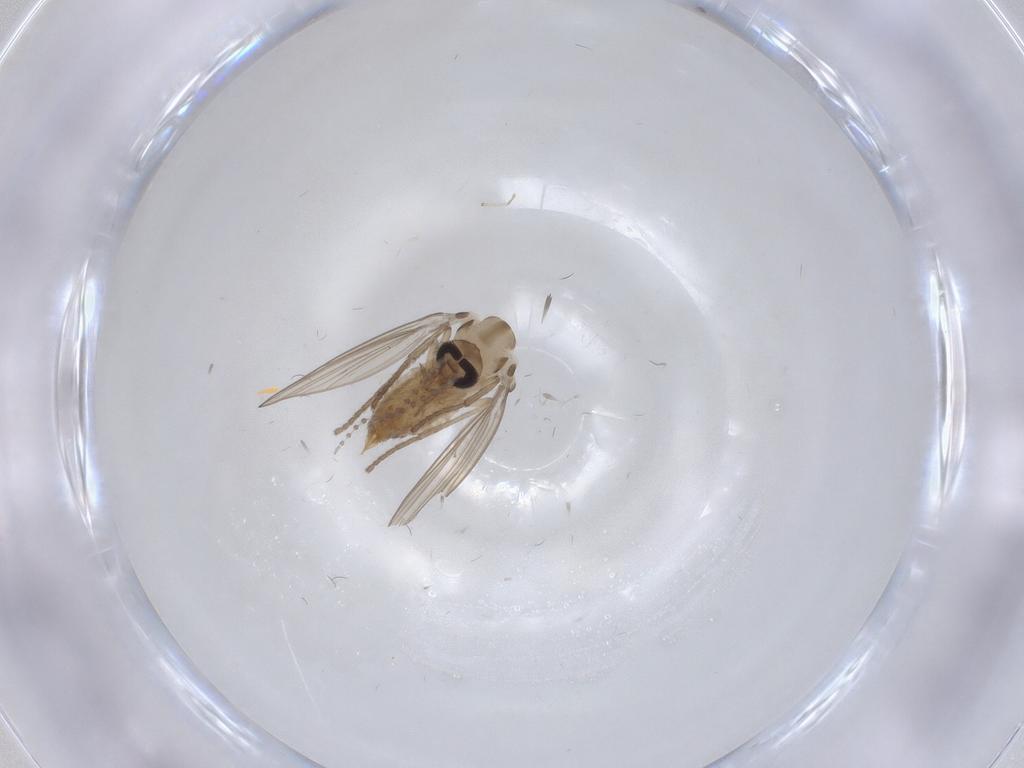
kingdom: Animalia
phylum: Arthropoda
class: Insecta
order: Diptera
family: Psychodidae
